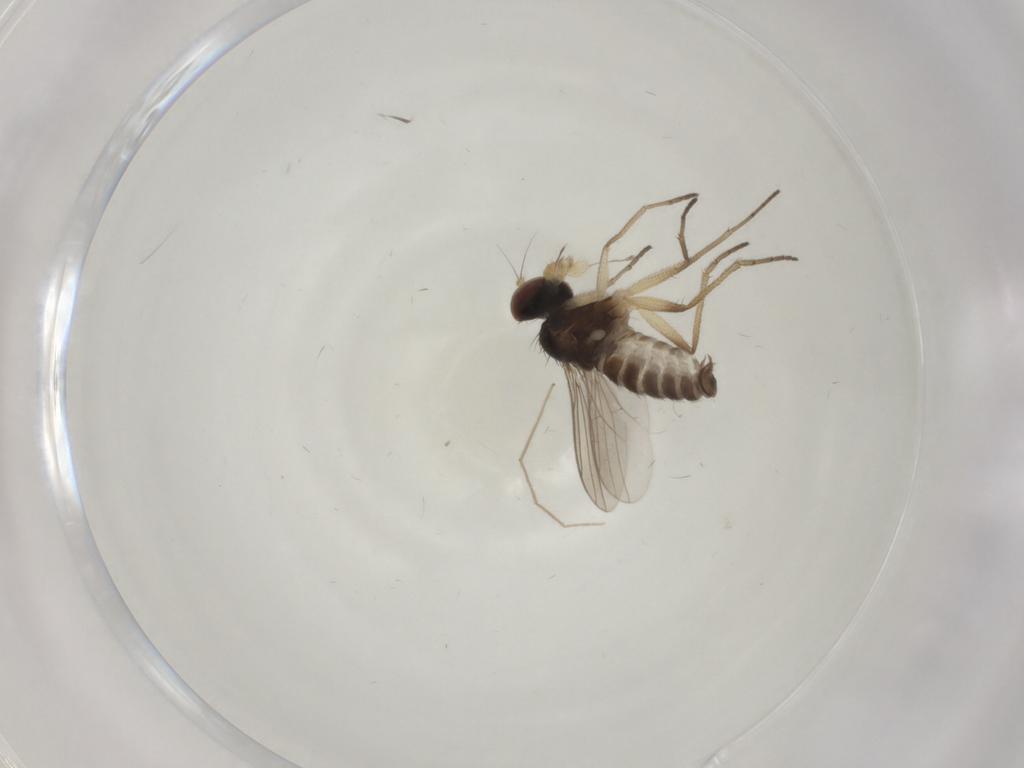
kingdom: Animalia
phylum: Arthropoda
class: Insecta
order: Diptera
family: Dolichopodidae
